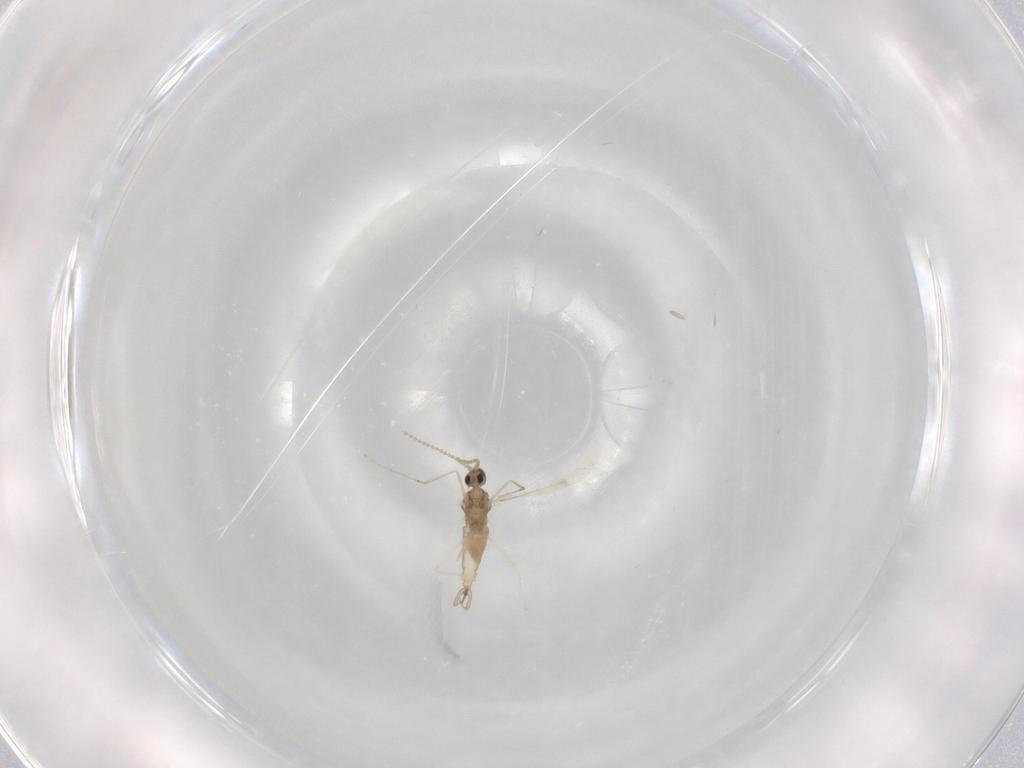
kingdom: Animalia
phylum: Arthropoda
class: Insecta
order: Diptera
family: Cecidomyiidae
